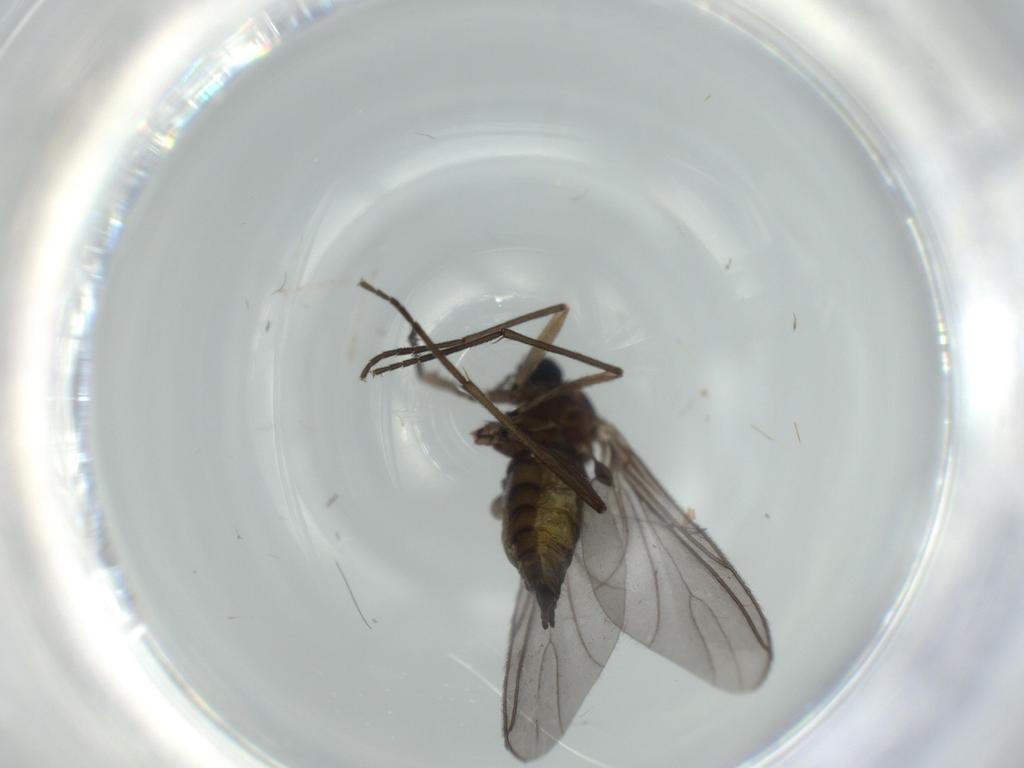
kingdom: Animalia
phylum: Arthropoda
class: Insecta
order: Diptera
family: Sciaridae
